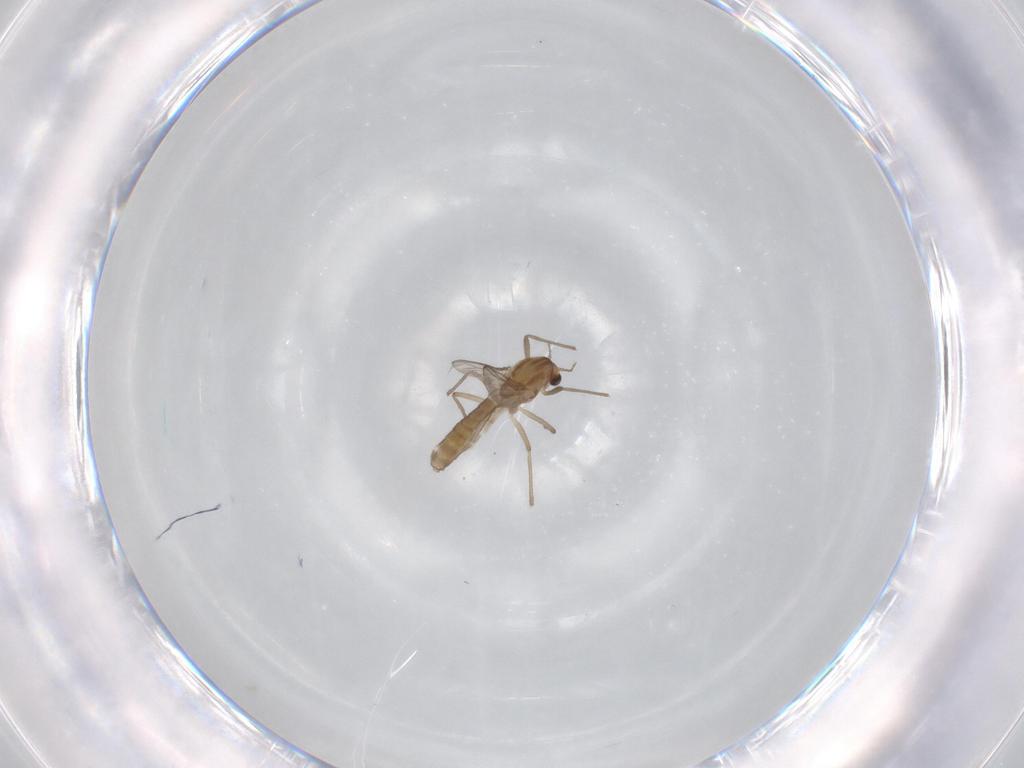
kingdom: Animalia
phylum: Arthropoda
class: Insecta
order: Diptera
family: Chironomidae
